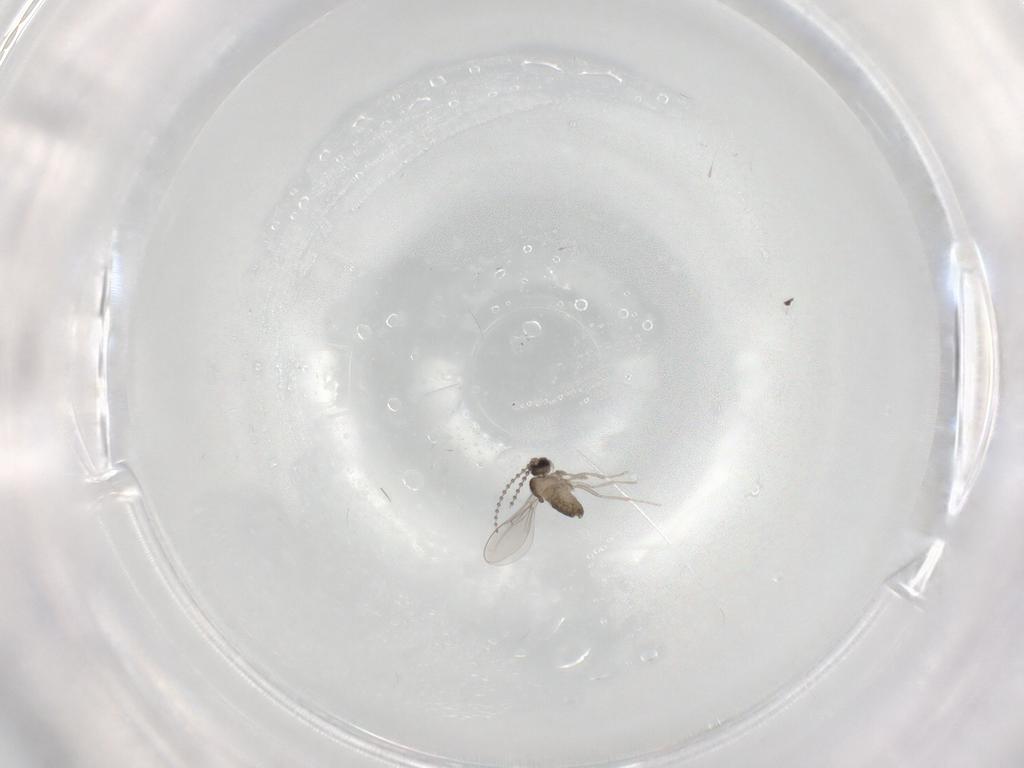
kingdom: Animalia
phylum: Arthropoda
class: Insecta
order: Diptera
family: Cecidomyiidae
